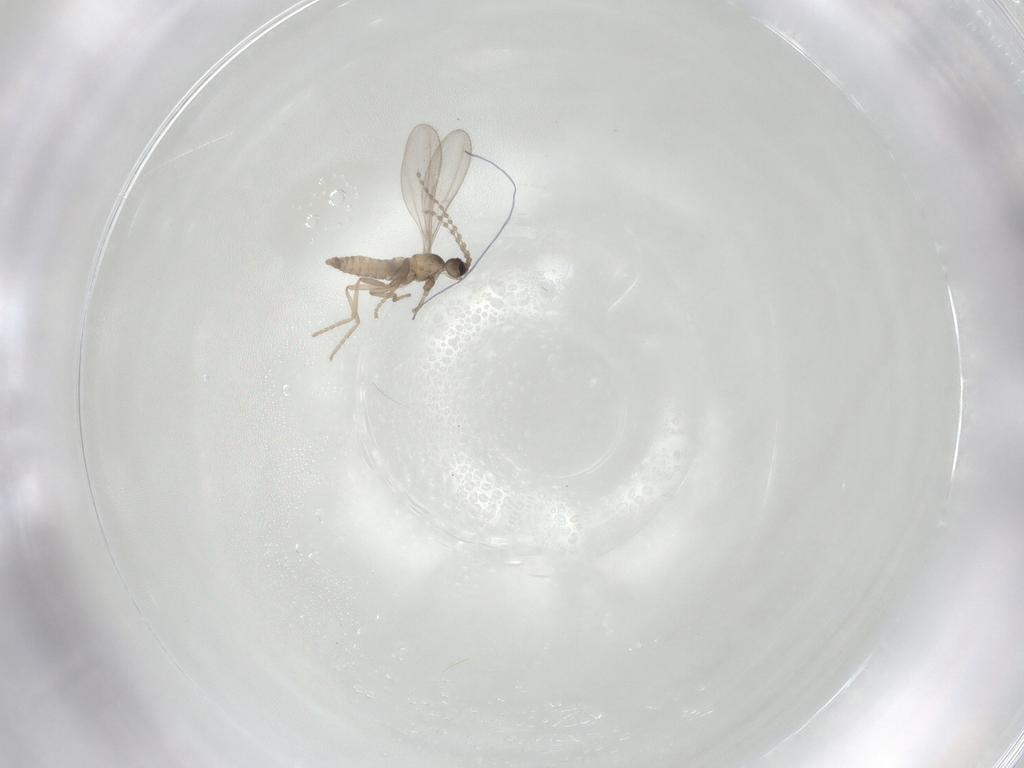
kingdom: Animalia
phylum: Arthropoda
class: Insecta
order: Diptera
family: Cecidomyiidae
